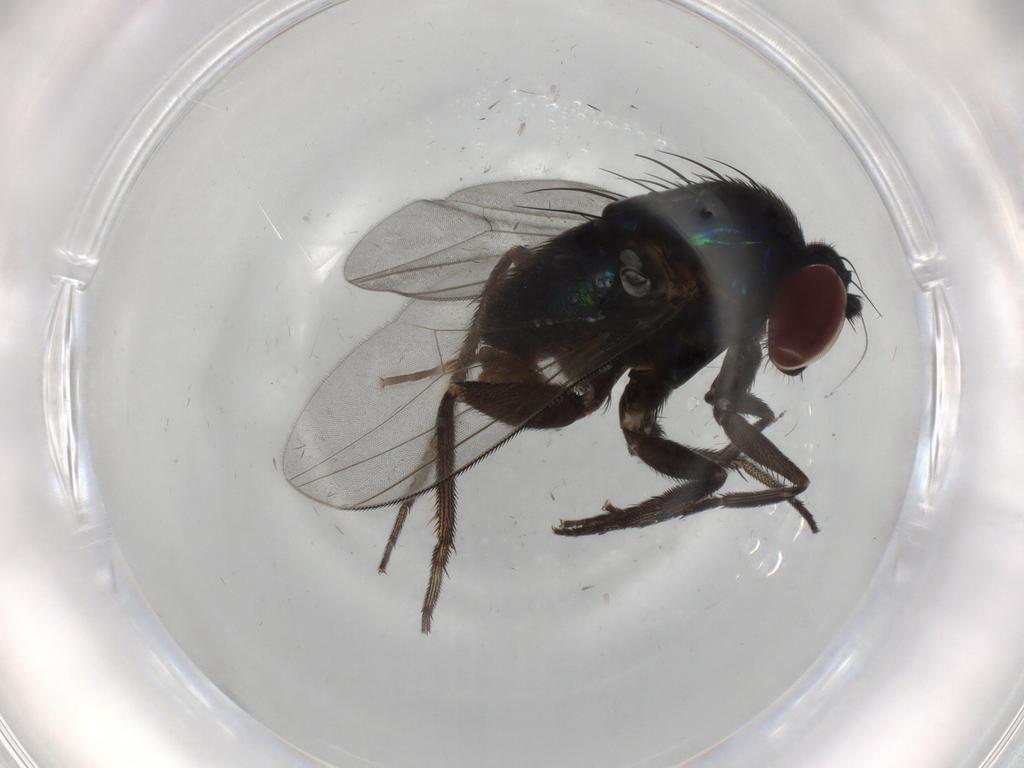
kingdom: Animalia
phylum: Arthropoda
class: Insecta
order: Diptera
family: Dolichopodidae
